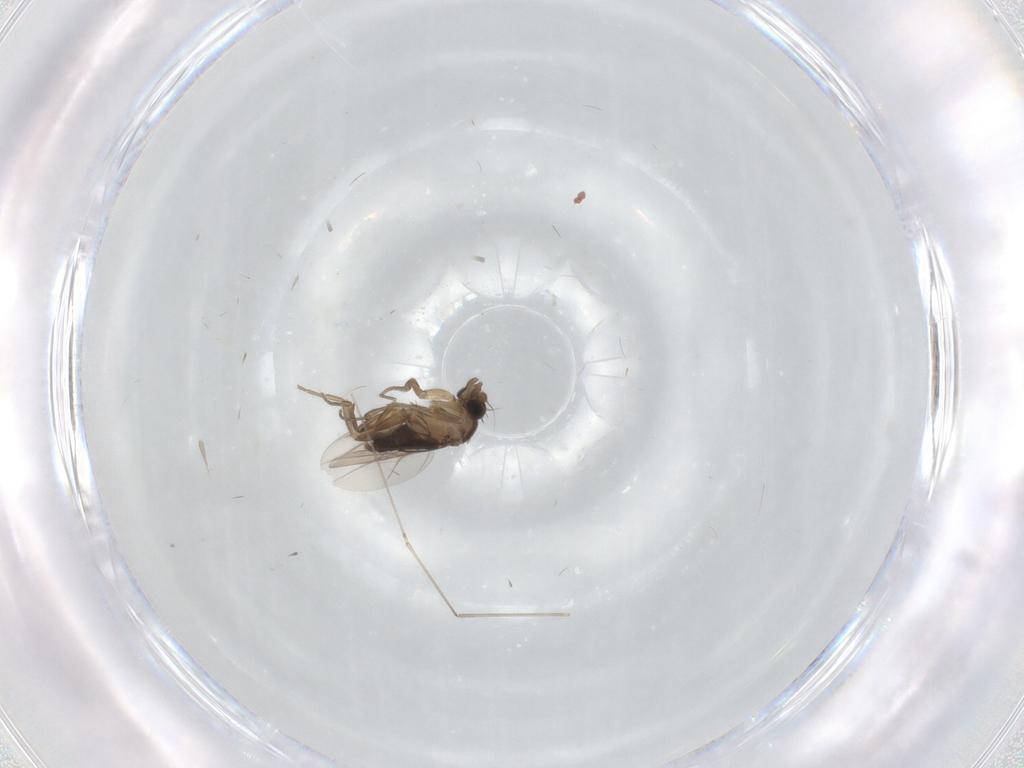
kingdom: Animalia
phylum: Arthropoda
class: Insecta
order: Diptera
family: Phoridae
